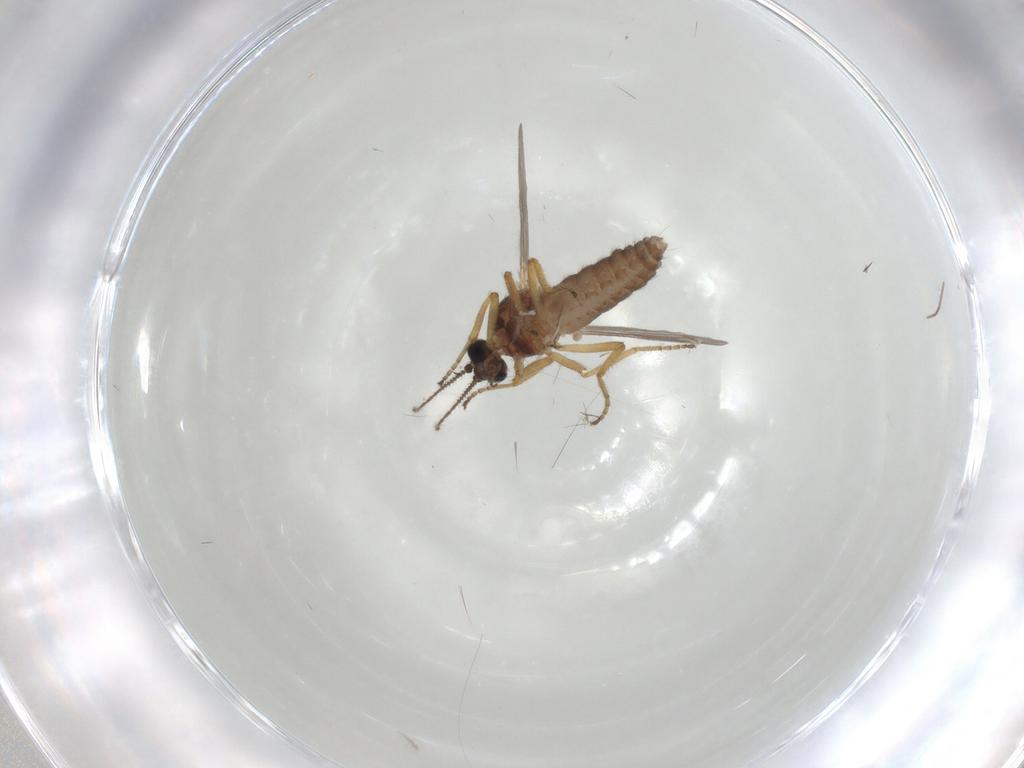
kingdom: Animalia
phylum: Arthropoda
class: Insecta
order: Diptera
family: Ceratopogonidae
